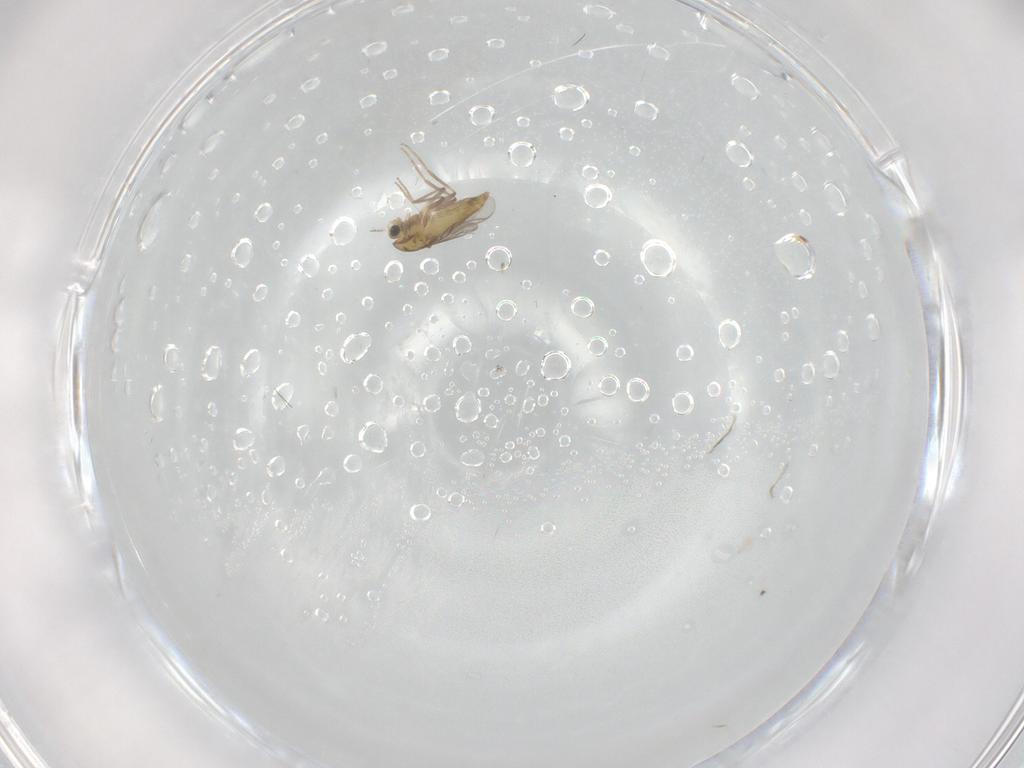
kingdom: Animalia
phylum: Arthropoda
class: Insecta
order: Diptera
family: Chironomidae
